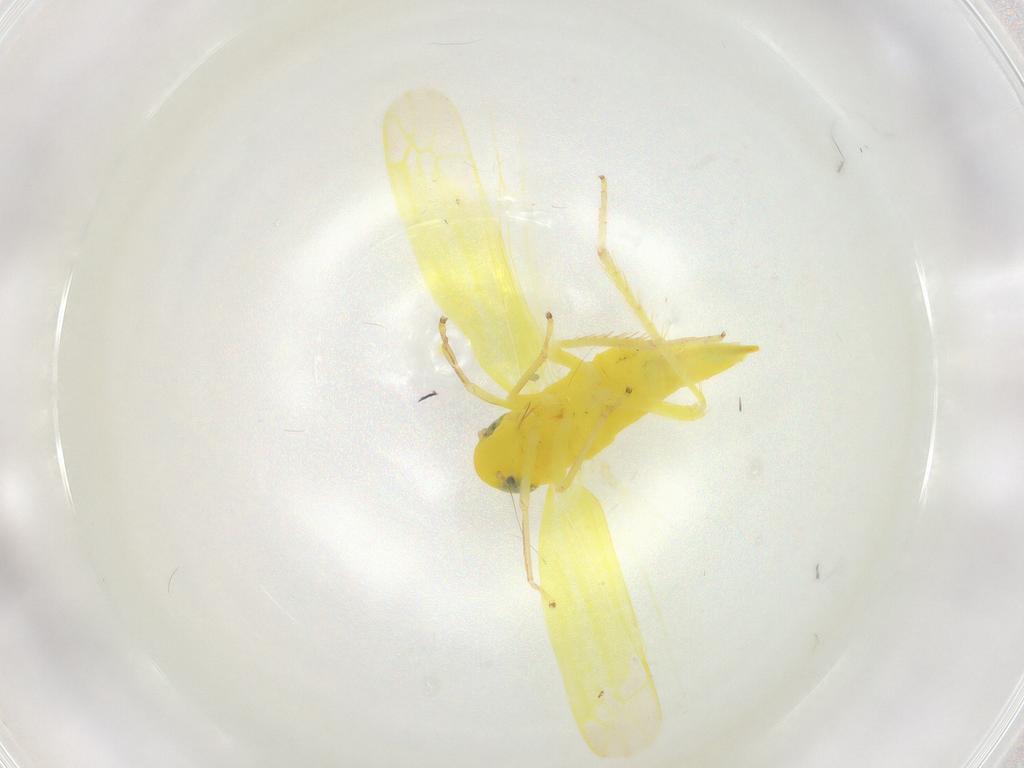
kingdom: Animalia
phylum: Arthropoda
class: Insecta
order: Hemiptera
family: Cicadellidae
